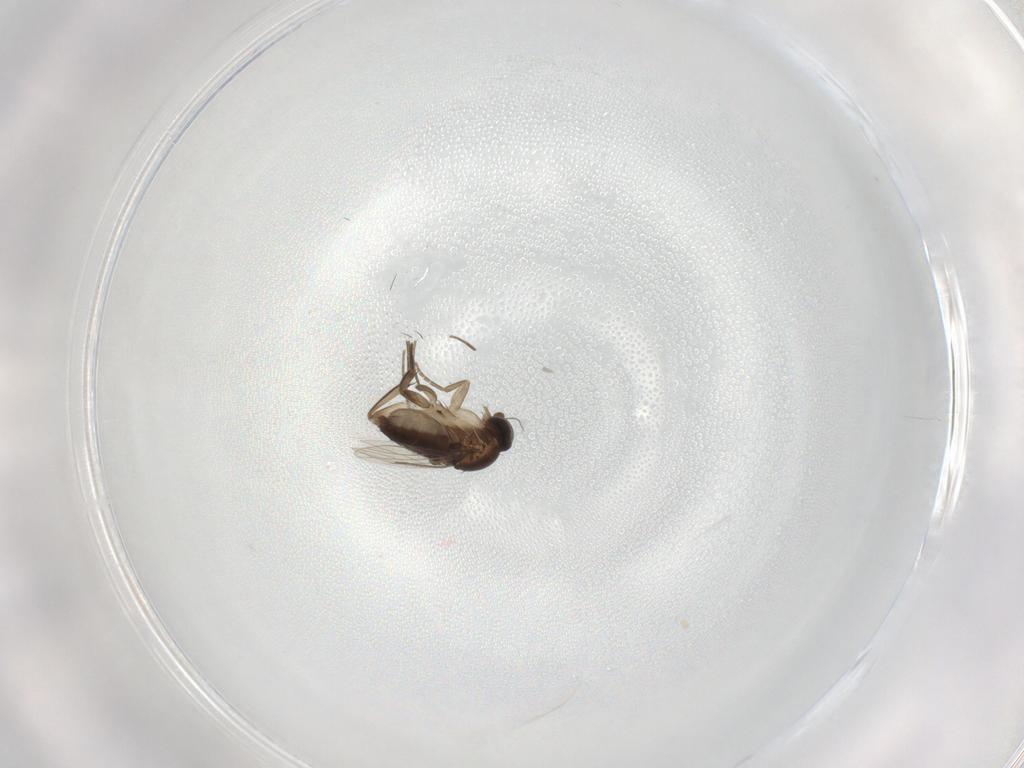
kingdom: Animalia
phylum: Arthropoda
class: Insecta
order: Diptera
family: Phoridae
